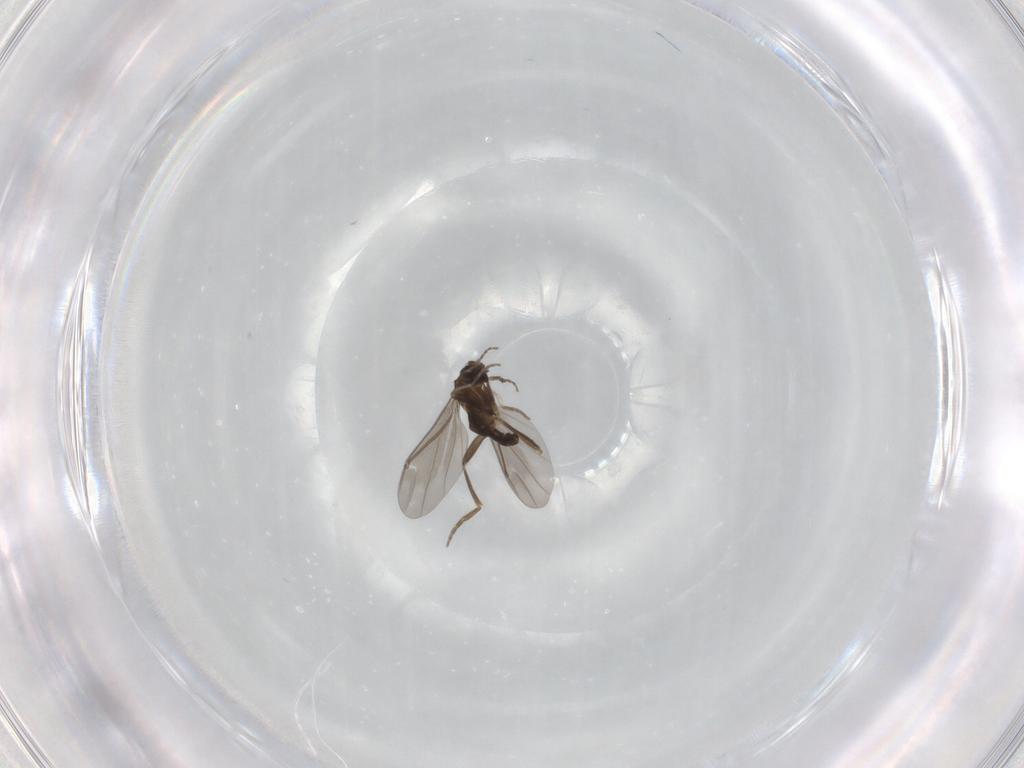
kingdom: Animalia
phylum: Arthropoda
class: Insecta
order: Diptera
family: Phoridae
